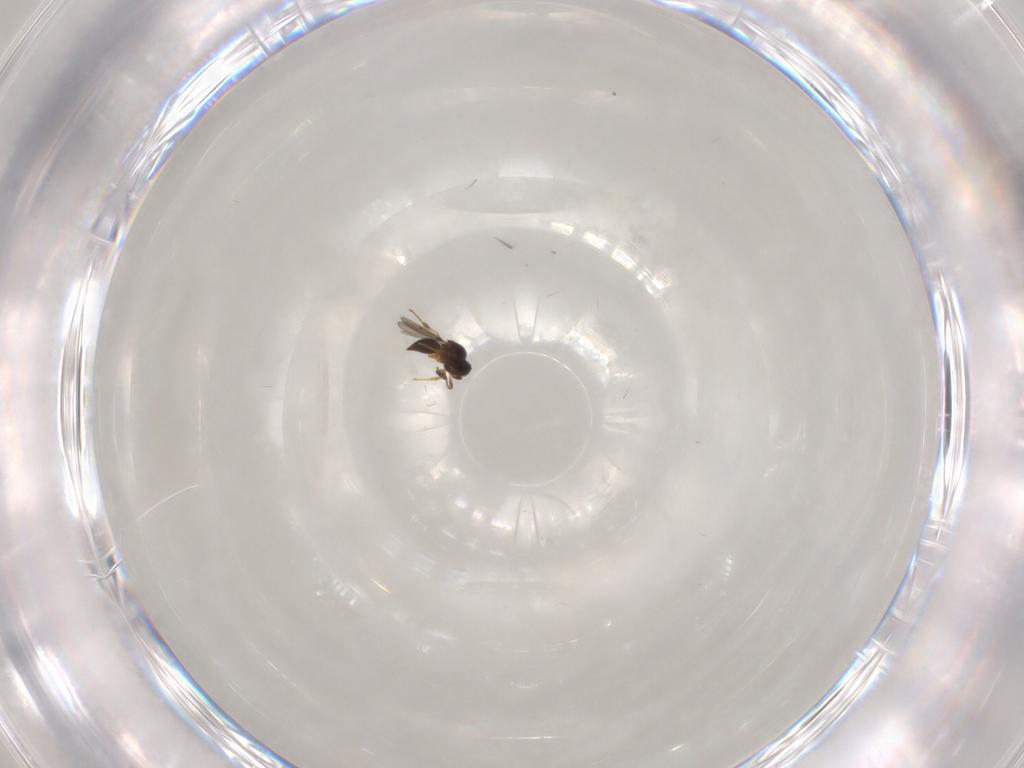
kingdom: Animalia
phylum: Arthropoda
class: Insecta
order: Hymenoptera
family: Platygastridae
